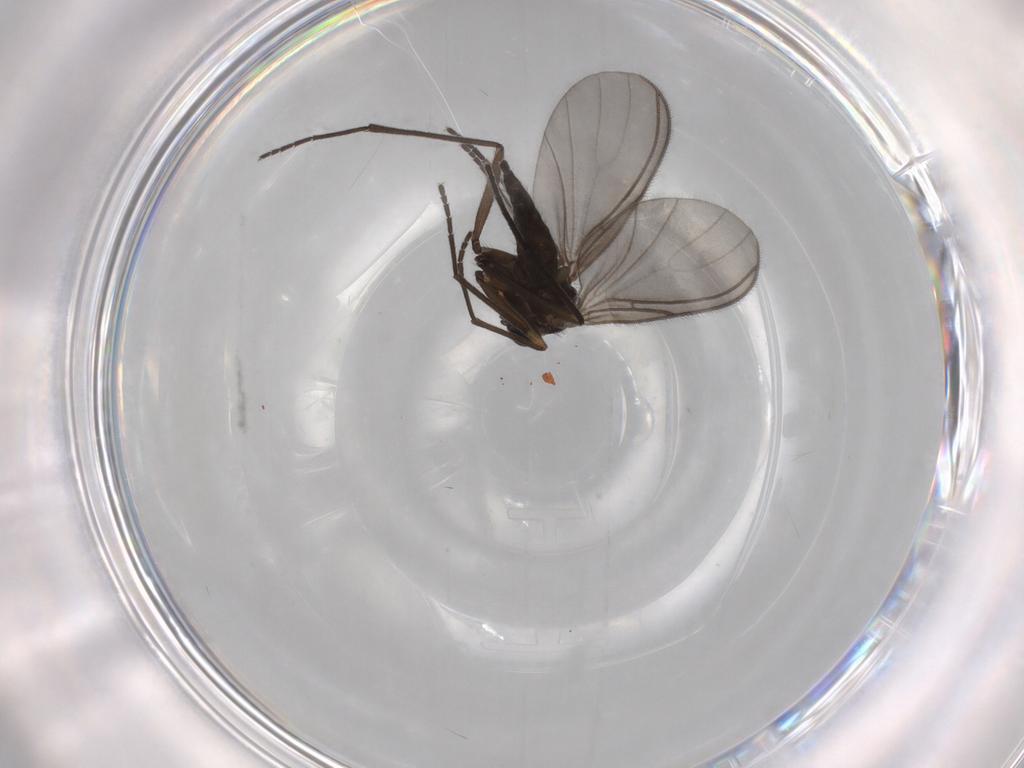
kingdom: Animalia
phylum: Arthropoda
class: Insecta
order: Diptera
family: Sciaridae
